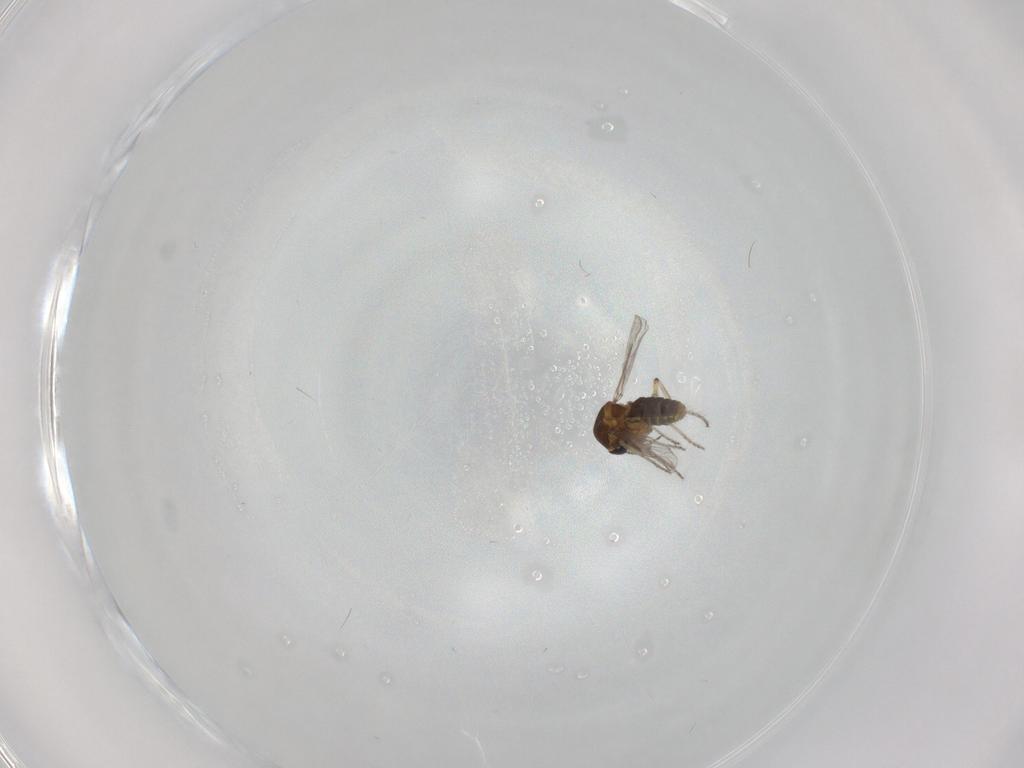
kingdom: Animalia
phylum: Arthropoda
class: Insecta
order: Diptera
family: Ceratopogonidae
